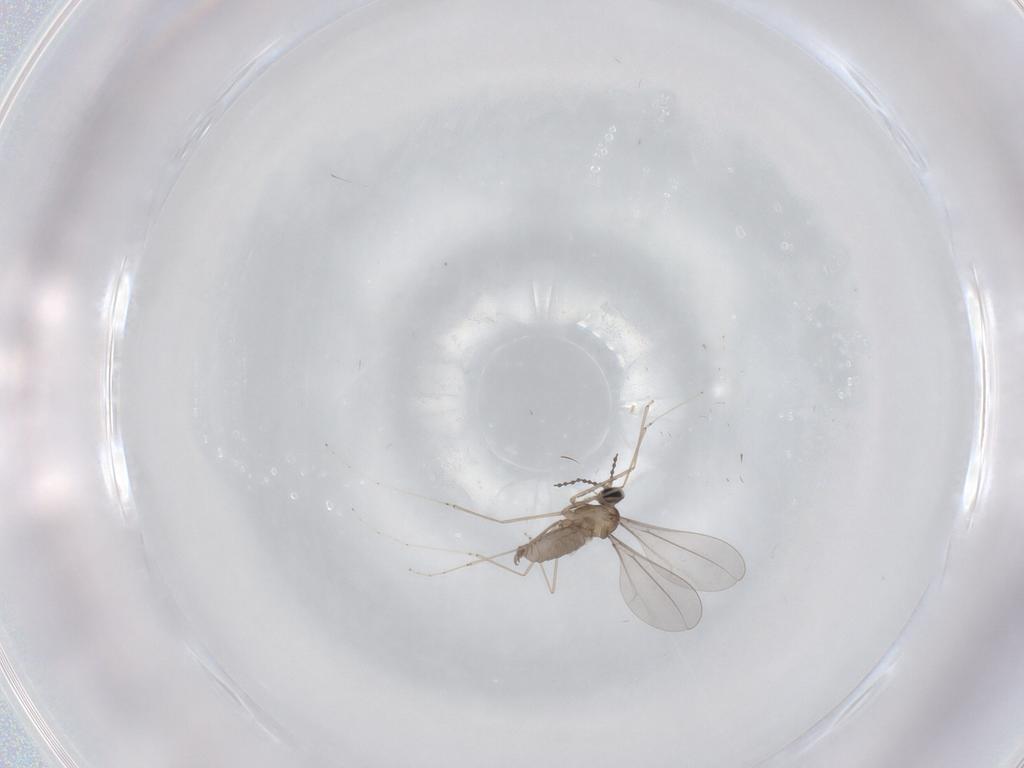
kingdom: Animalia
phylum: Arthropoda
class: Insecta
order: Diptera
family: Cecidomyiidae
